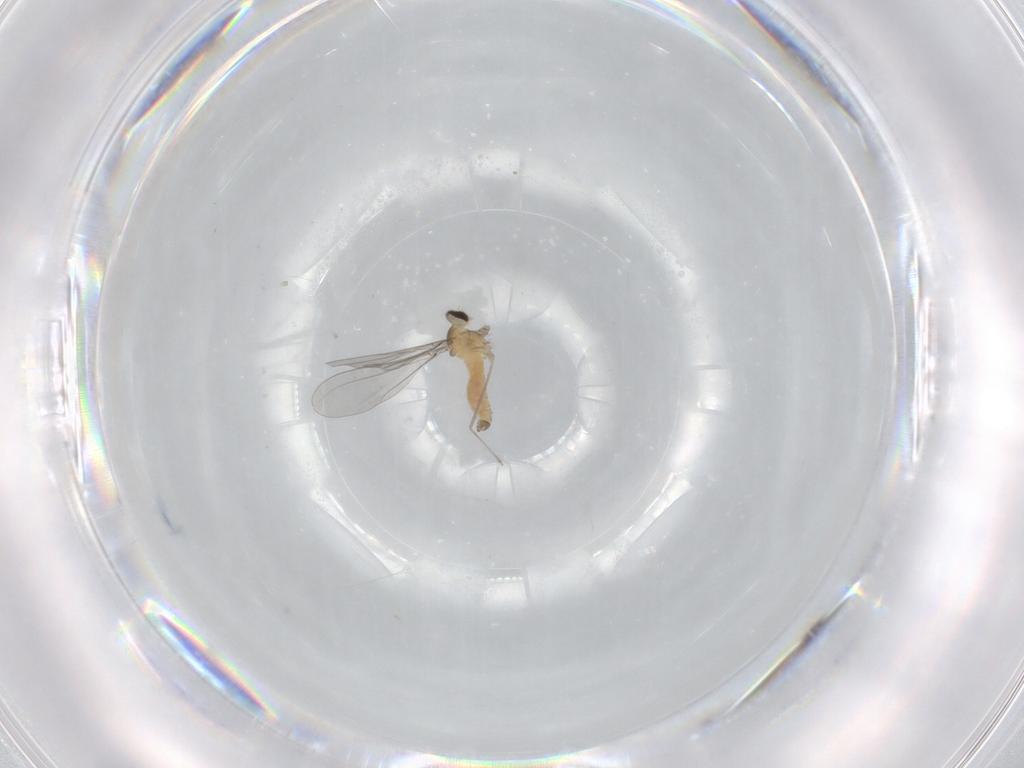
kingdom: Animalia
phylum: Arthropoda
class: Insecta
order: Diptera
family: Cecidomyiidae
